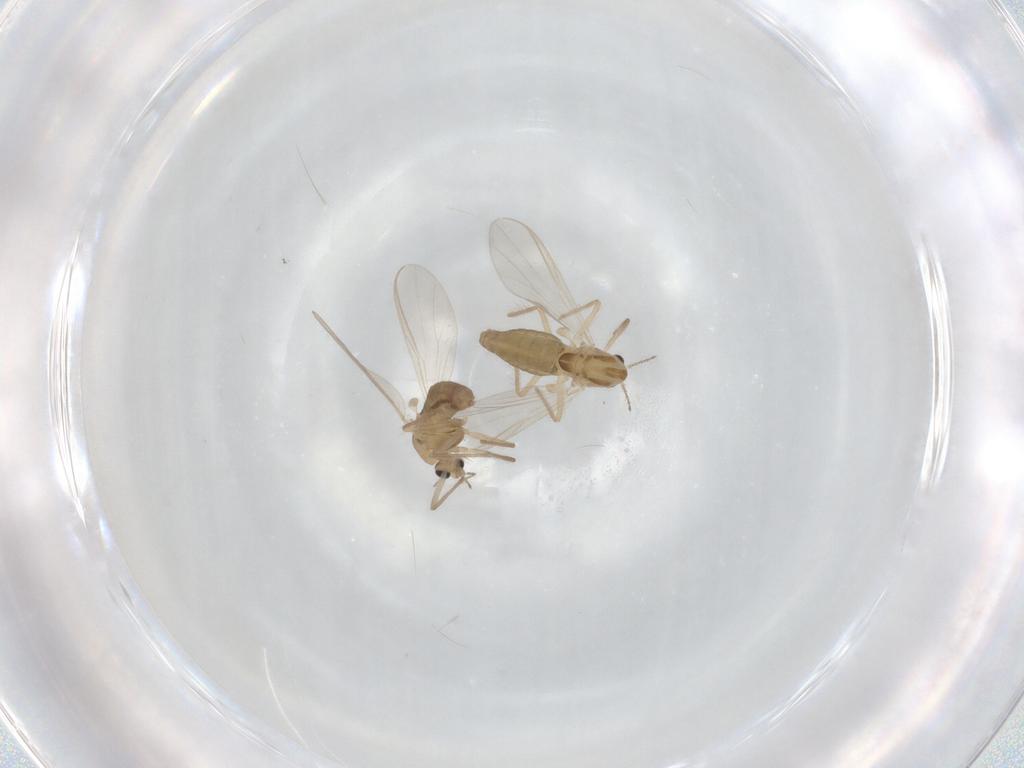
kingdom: Animalia
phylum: Arthropoda
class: Insecta
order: Diptera
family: Chironomidae
